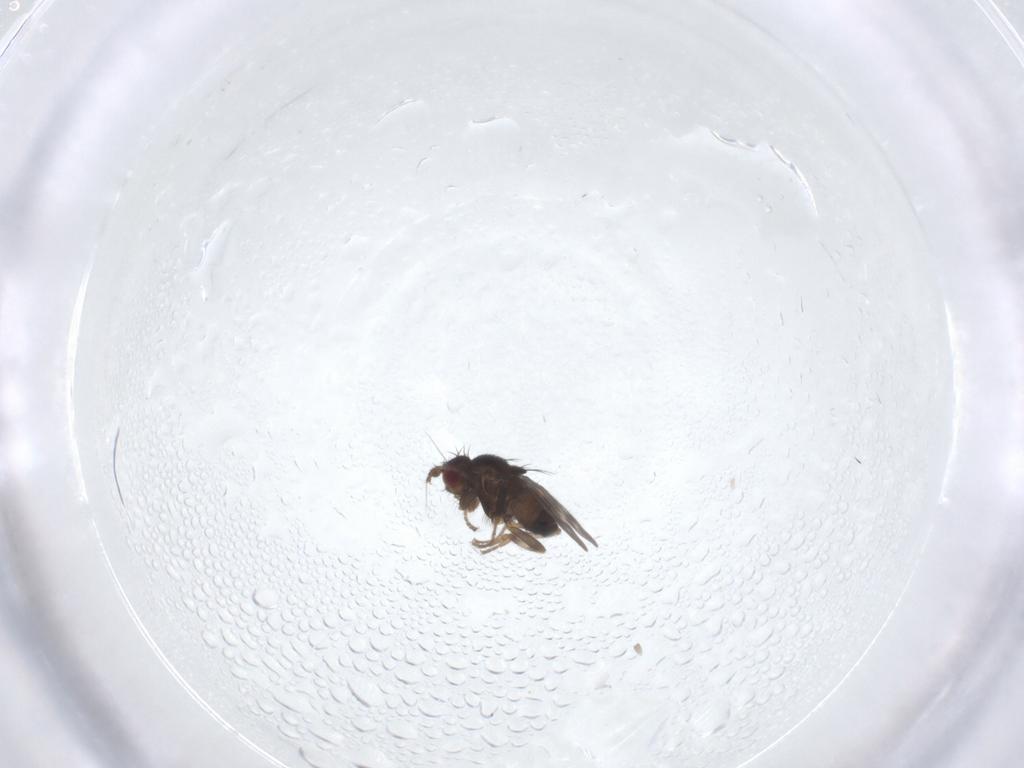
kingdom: Animalia
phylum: Arthropoda
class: Insecta
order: Diptera
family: Sphaeroceridae
